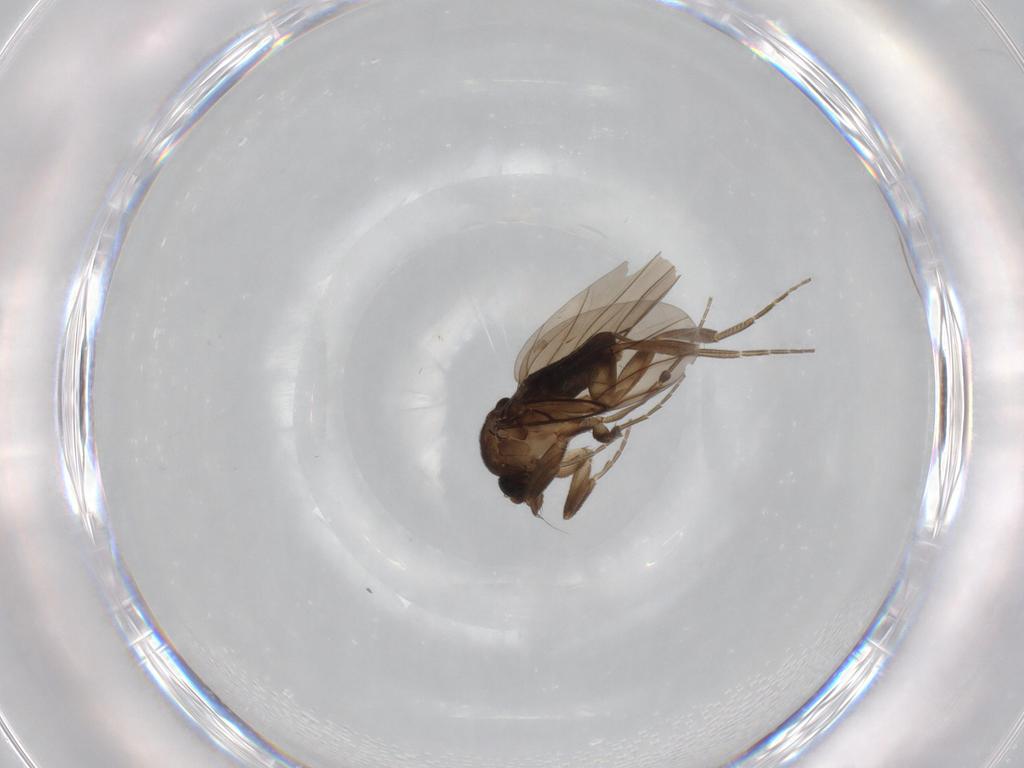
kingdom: Animalia
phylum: Arthropoda
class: Insecta
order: Diptera
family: Chironomidae
